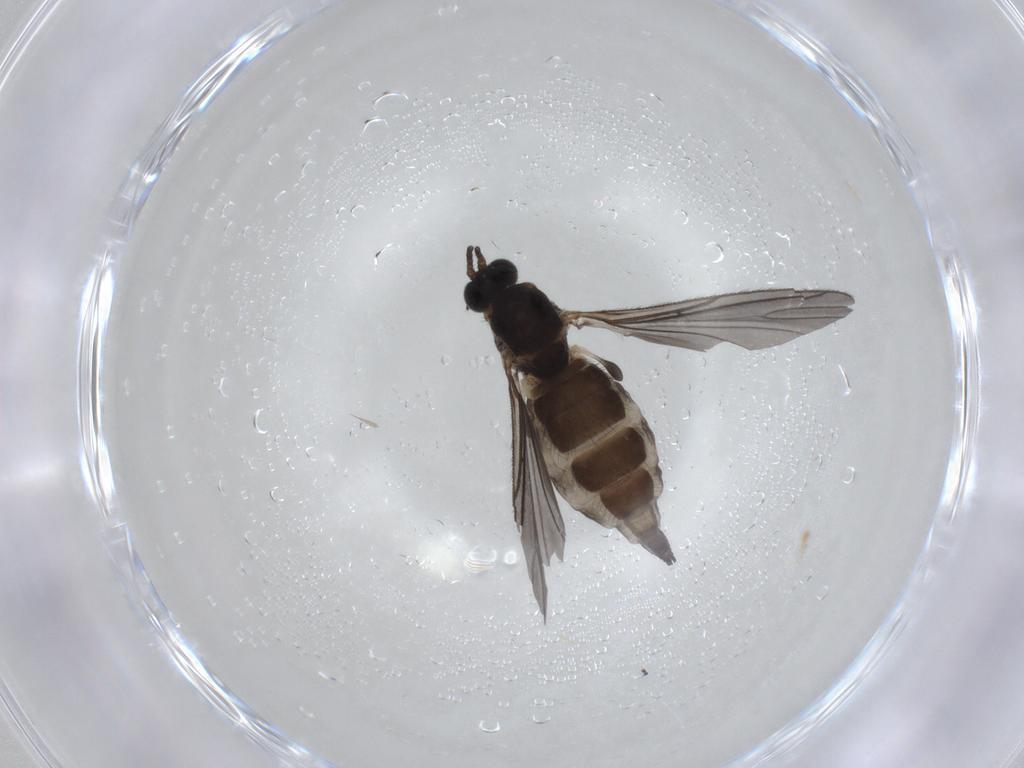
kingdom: Animalia
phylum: Arthropoda
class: Insecta
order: Diptera
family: Sciaridae
